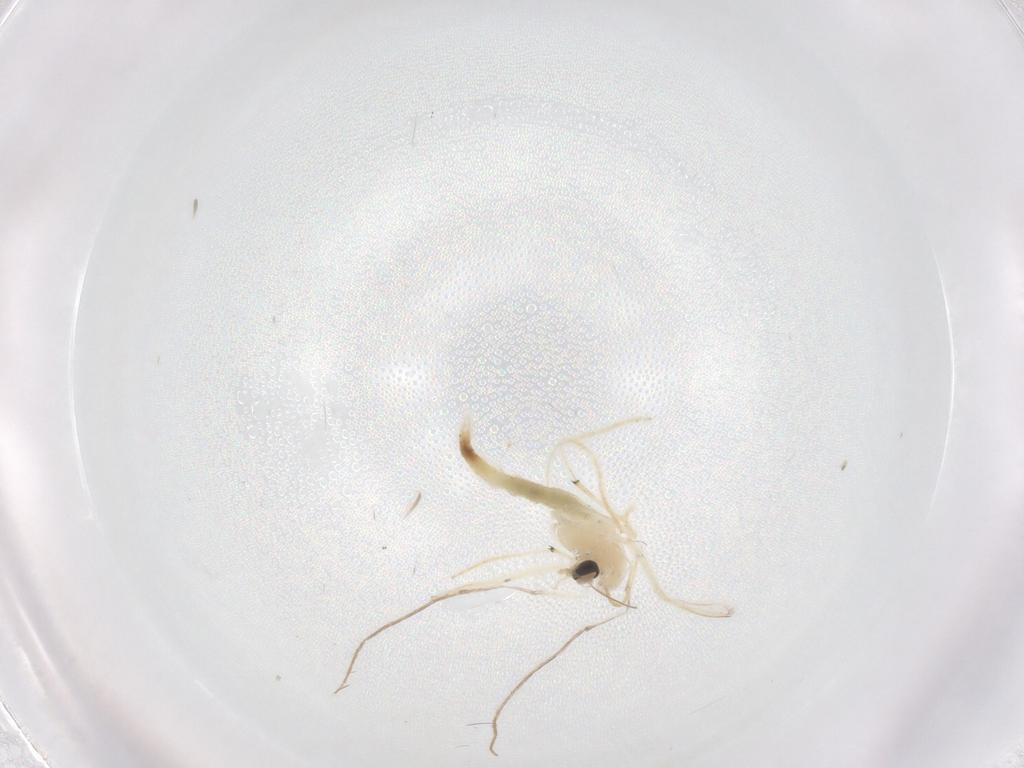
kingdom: Animalia
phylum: Arthropoda
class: Insecta
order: Diptera
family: Chironomidae
